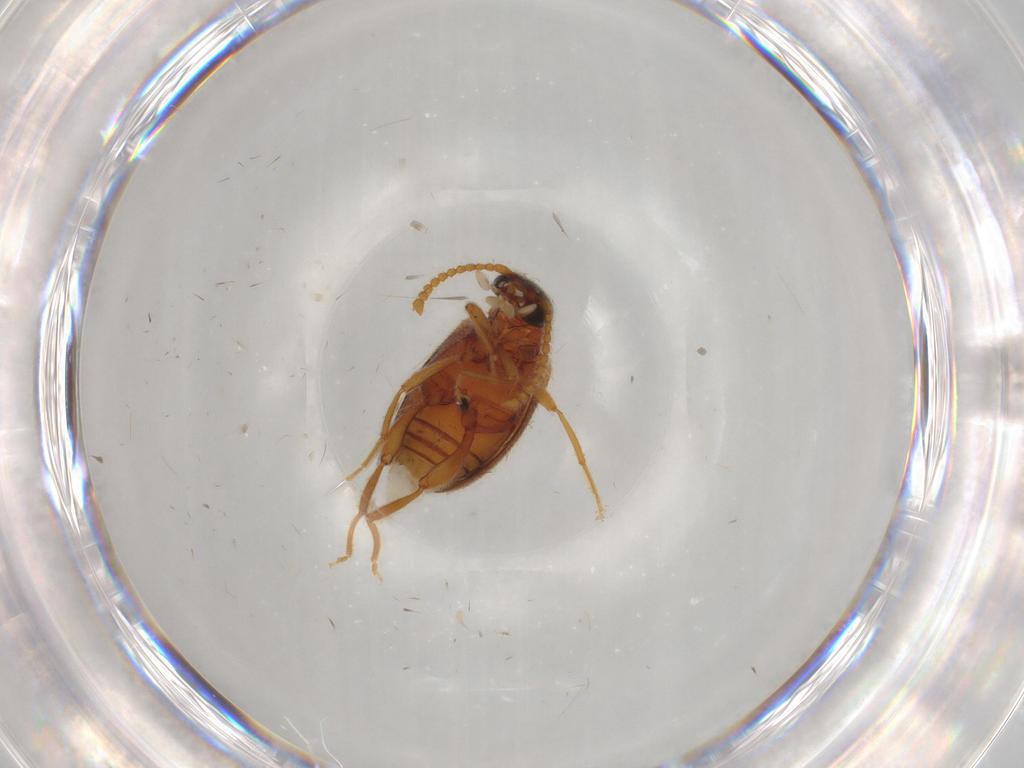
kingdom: Animalia
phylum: Arthropoda
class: Insecta
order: Coleoptera
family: Aderidae
